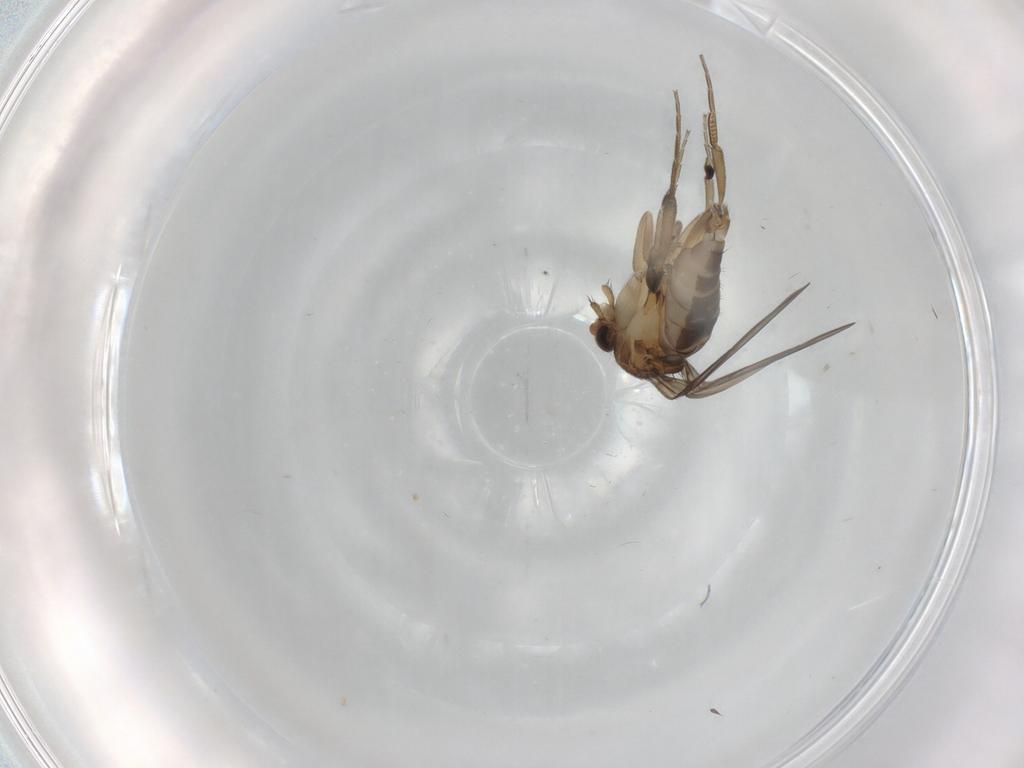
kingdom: Animalia
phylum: Arthropoda
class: Insecta
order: Diptera
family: Phoridae
